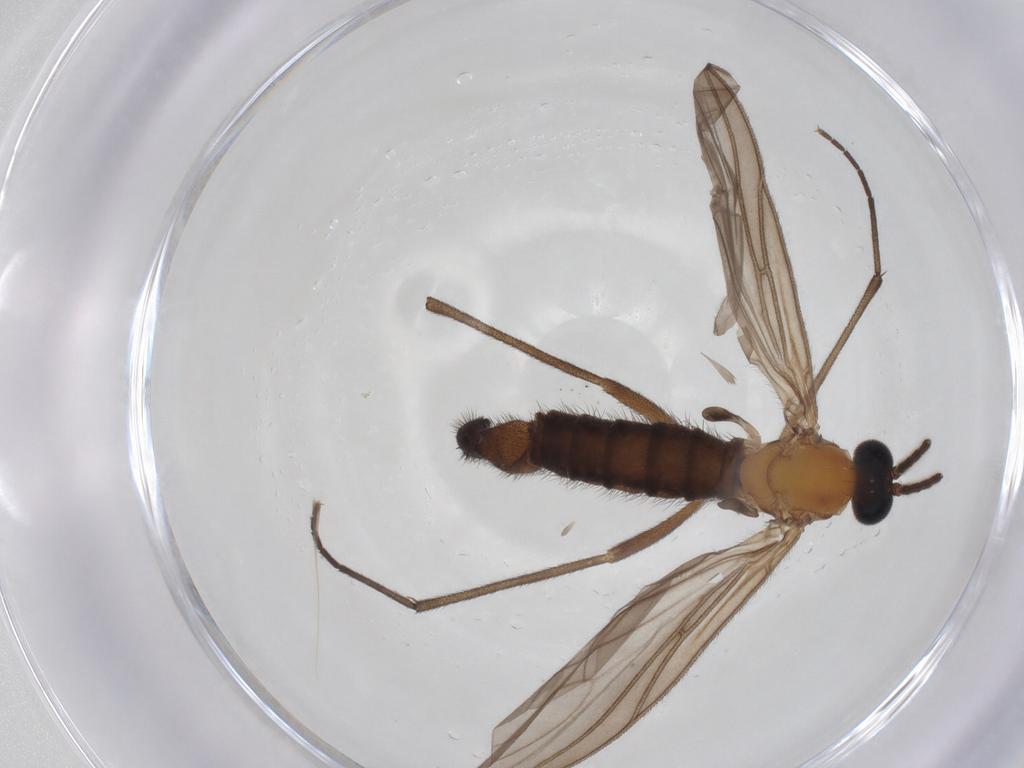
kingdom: Animalia
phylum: Arthropoda
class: Insecta
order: Diptera
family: Sciaridae
